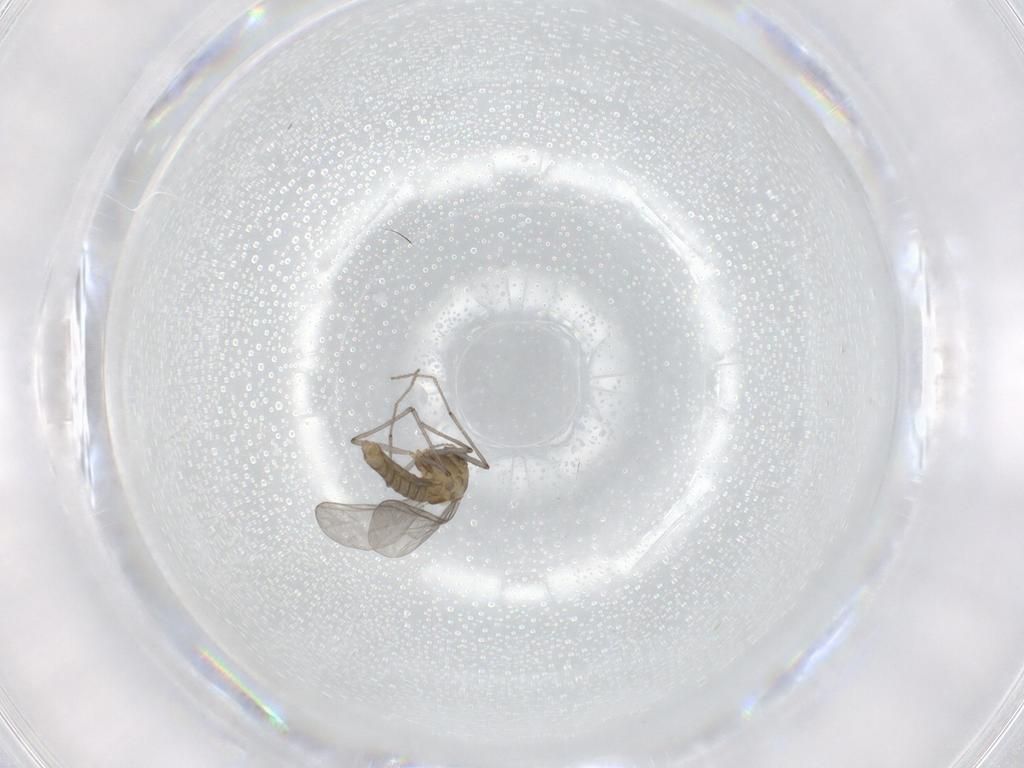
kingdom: Animalia
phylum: Arthropoda
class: Insecta
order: Diptera
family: Chironomidae
